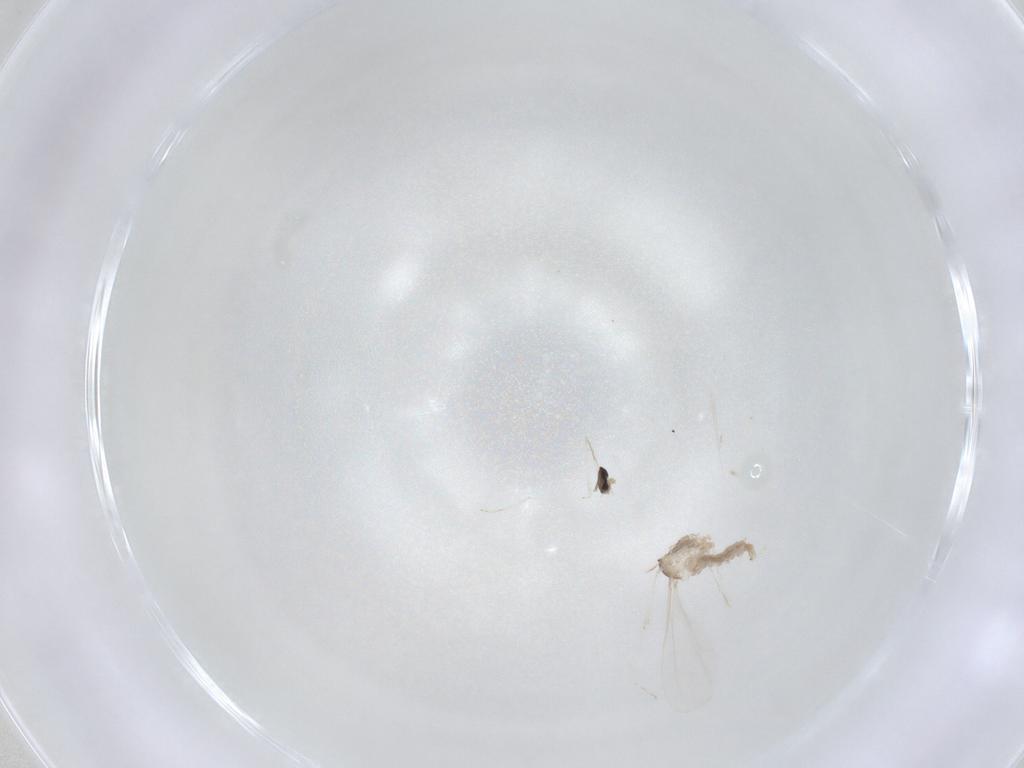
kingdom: Animalia
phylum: Arthropoda
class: Insecta
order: Diptera
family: Cecidomyiidae
